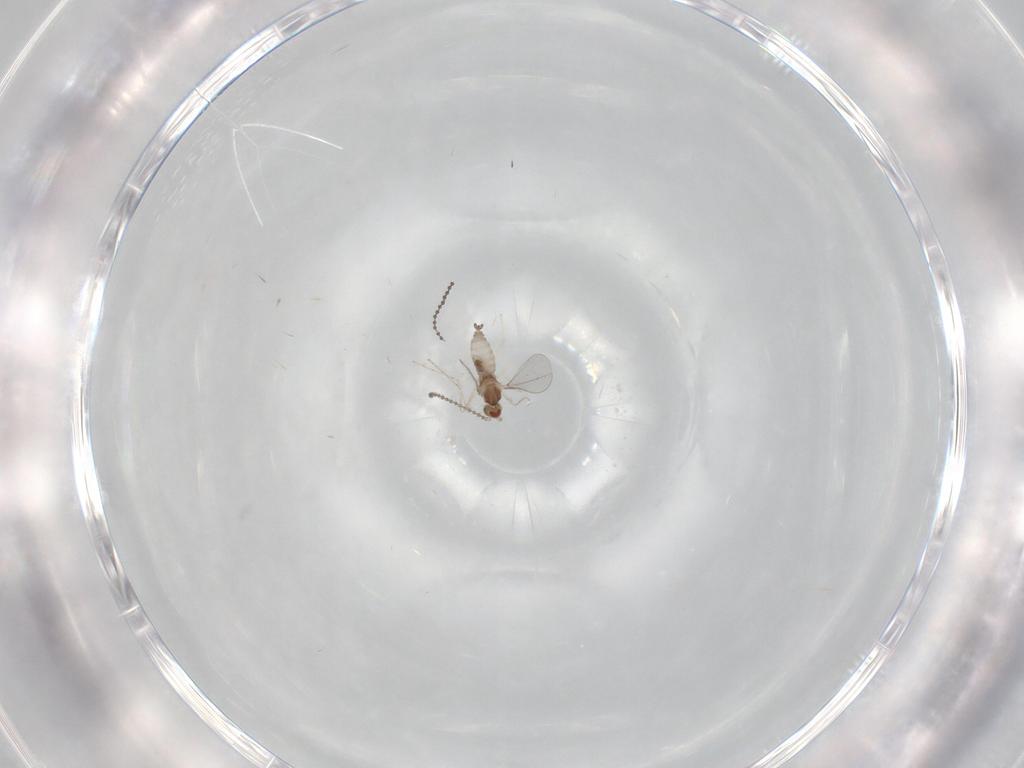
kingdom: Animalia
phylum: Arthropoda
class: Insecta
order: Diptera
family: Cecidomyiidae
